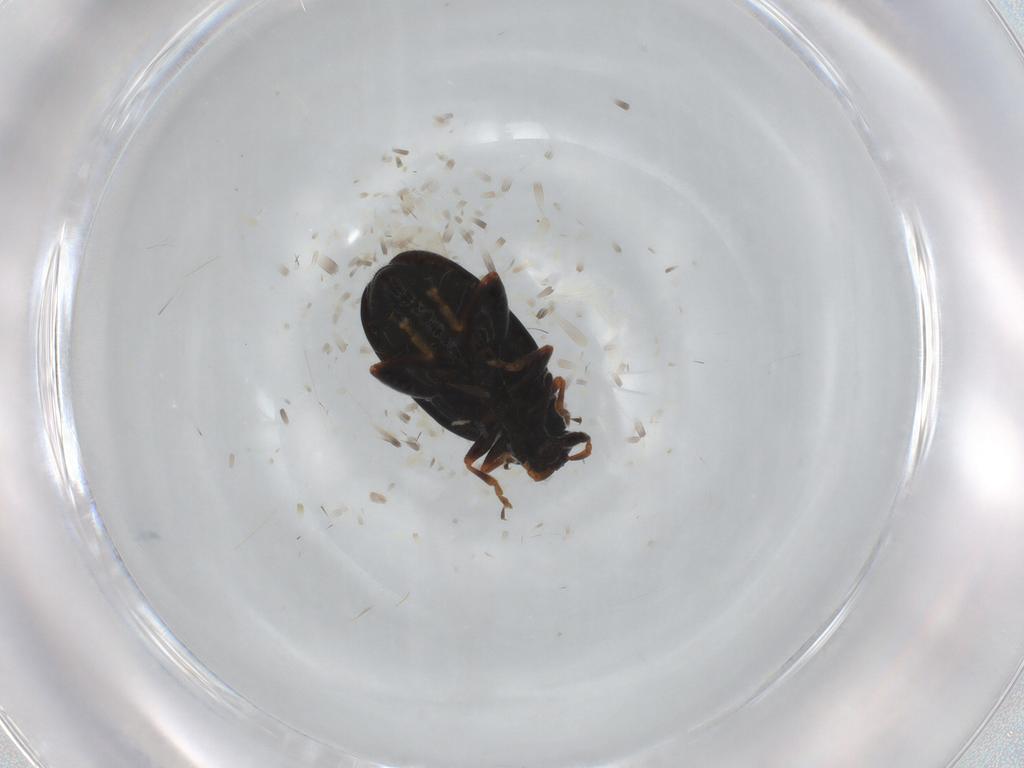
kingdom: Animalia
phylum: Arthropoda
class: Insecta
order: Coleoptera
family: Chrysomelidae
